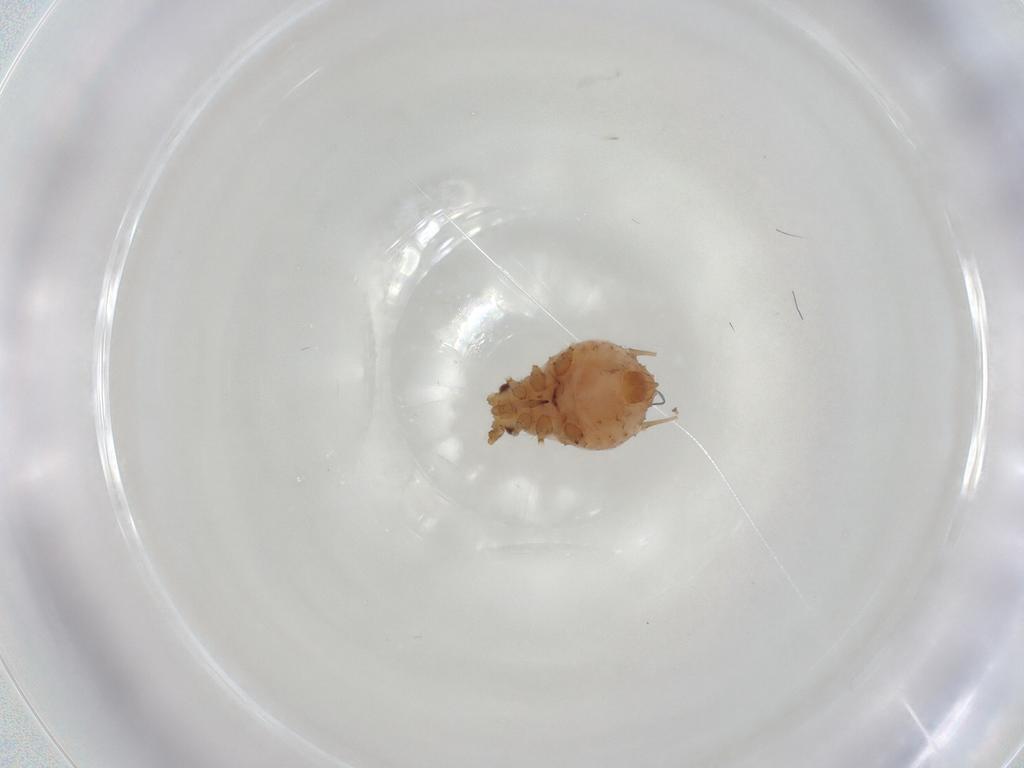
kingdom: Animalia
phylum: Arthropoda
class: Insecta
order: Hemiptera
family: Aphididae
